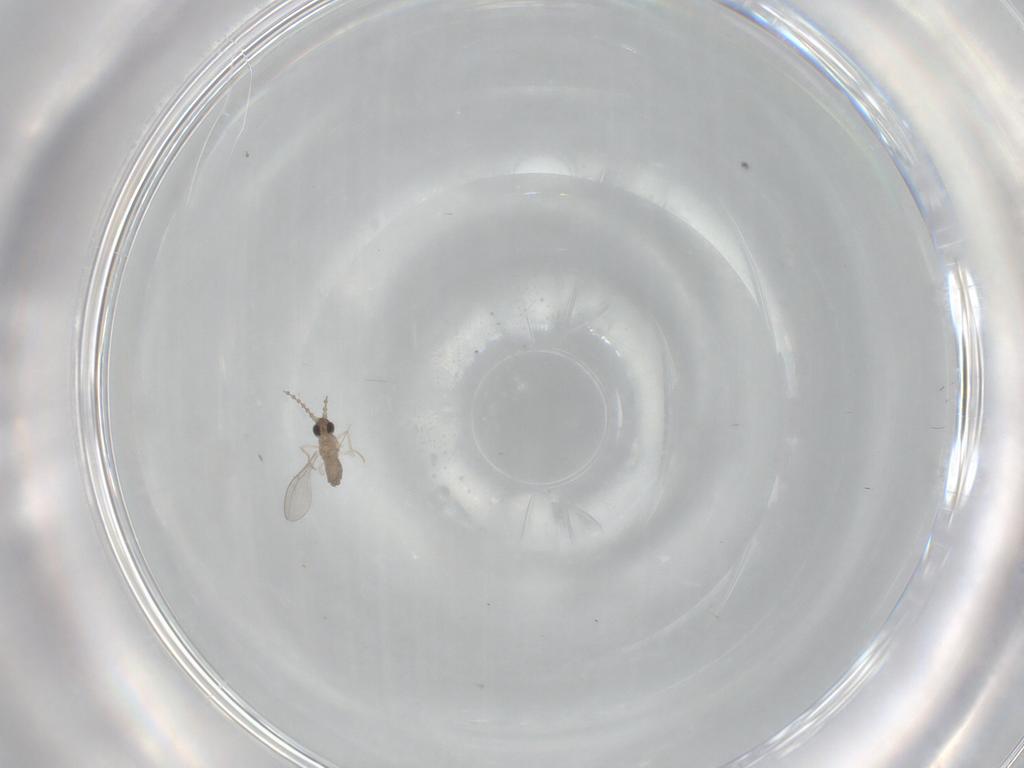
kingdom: Animalia
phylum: Arthropoda
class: Insecta
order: Diptera
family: Cecidomyiidae
